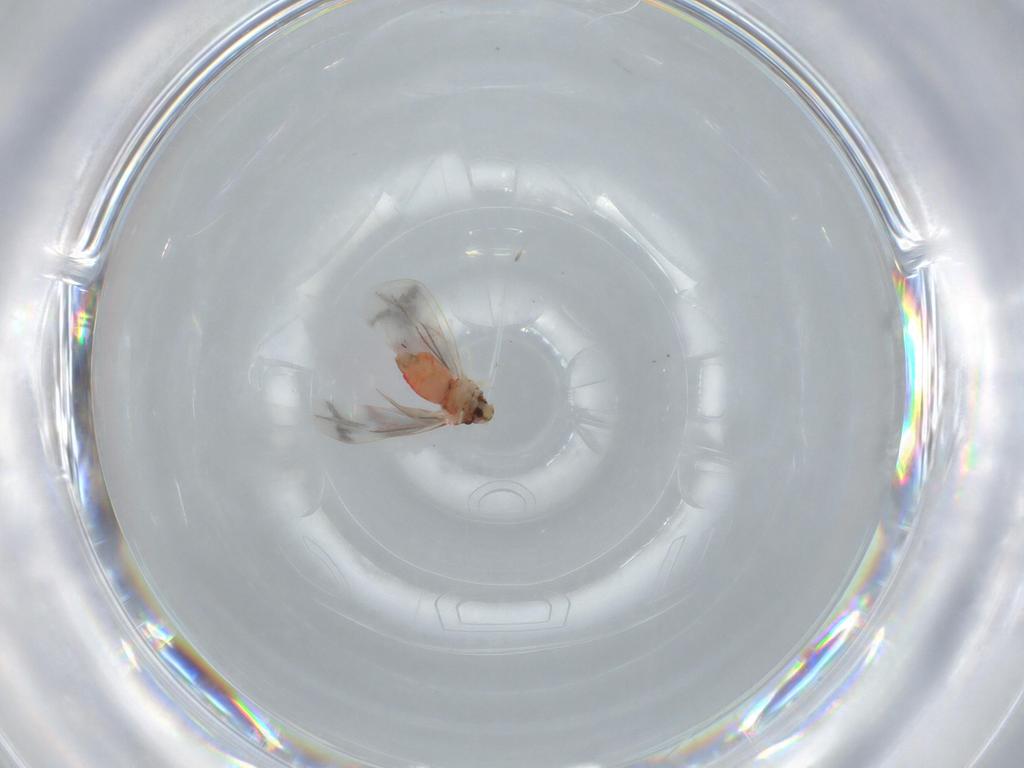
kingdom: Animalia
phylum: Arthropoda
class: Insecta
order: Hemiptera
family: Aleyrodidae
